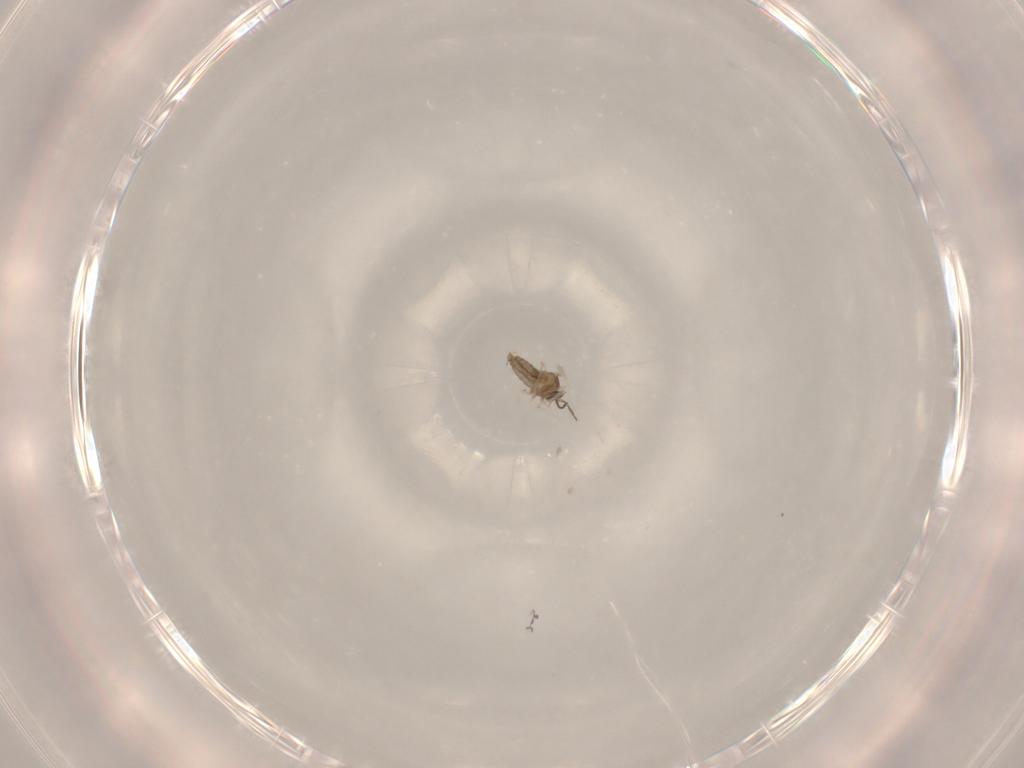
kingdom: Animalia
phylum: Arthropoda
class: Insecta
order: Diptera
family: Cecidomyiidae
